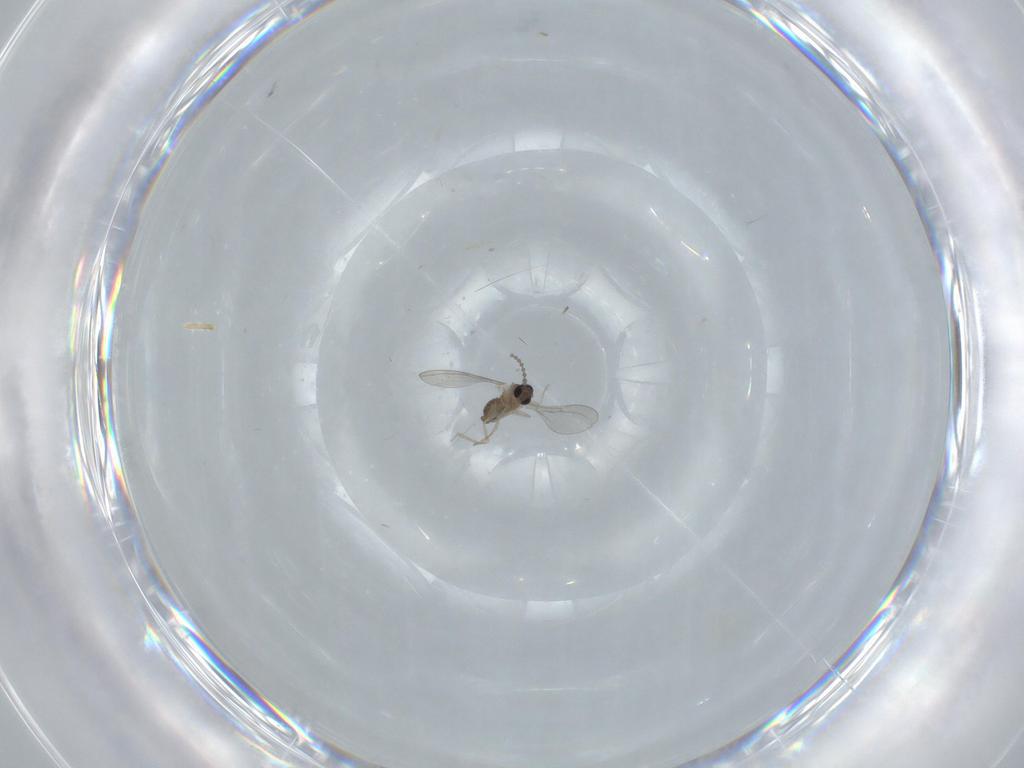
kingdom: Animalia
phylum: Arthropoda
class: Insecta
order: Diptera
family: Cecidomyiidae
